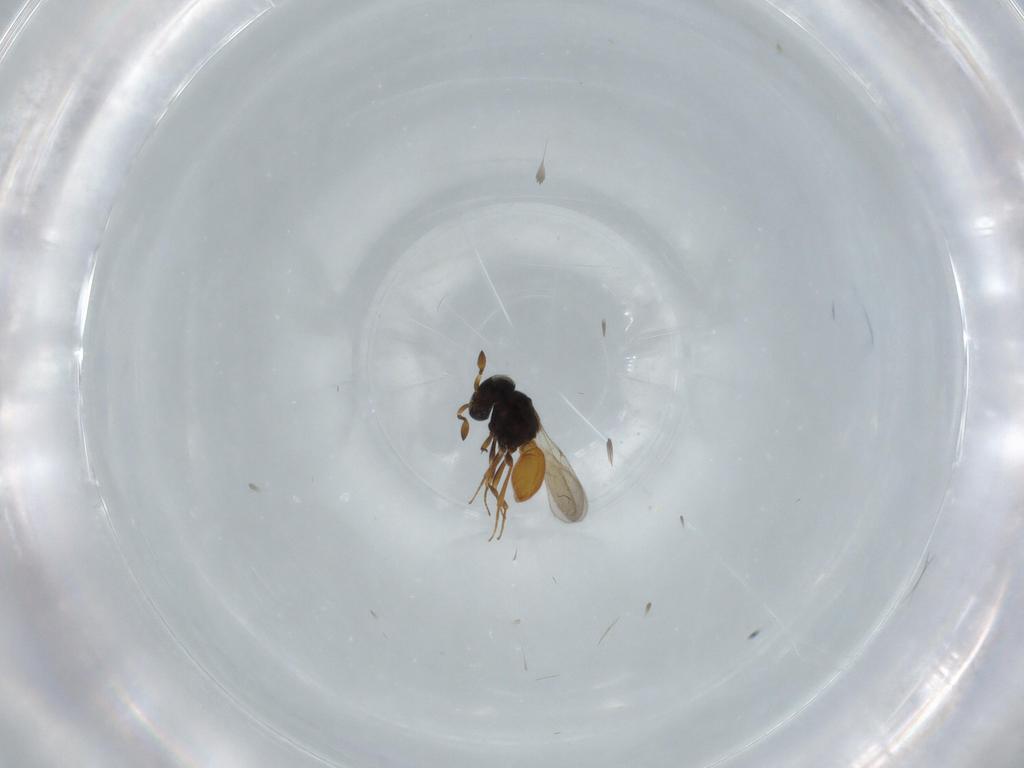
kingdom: Animalia
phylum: Arthropoda
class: Insecta
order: Hymenoptera
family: Scelionidae
